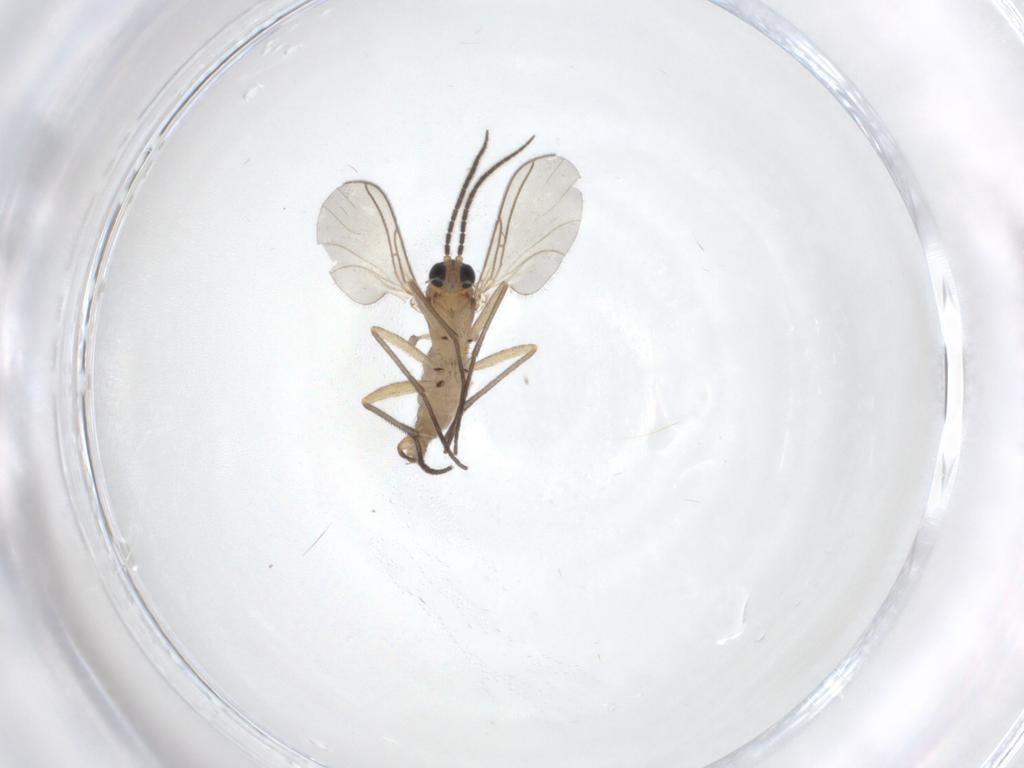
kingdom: Animalia
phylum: Arthropoda
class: Insecta
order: Diptera
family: Sciaridae
